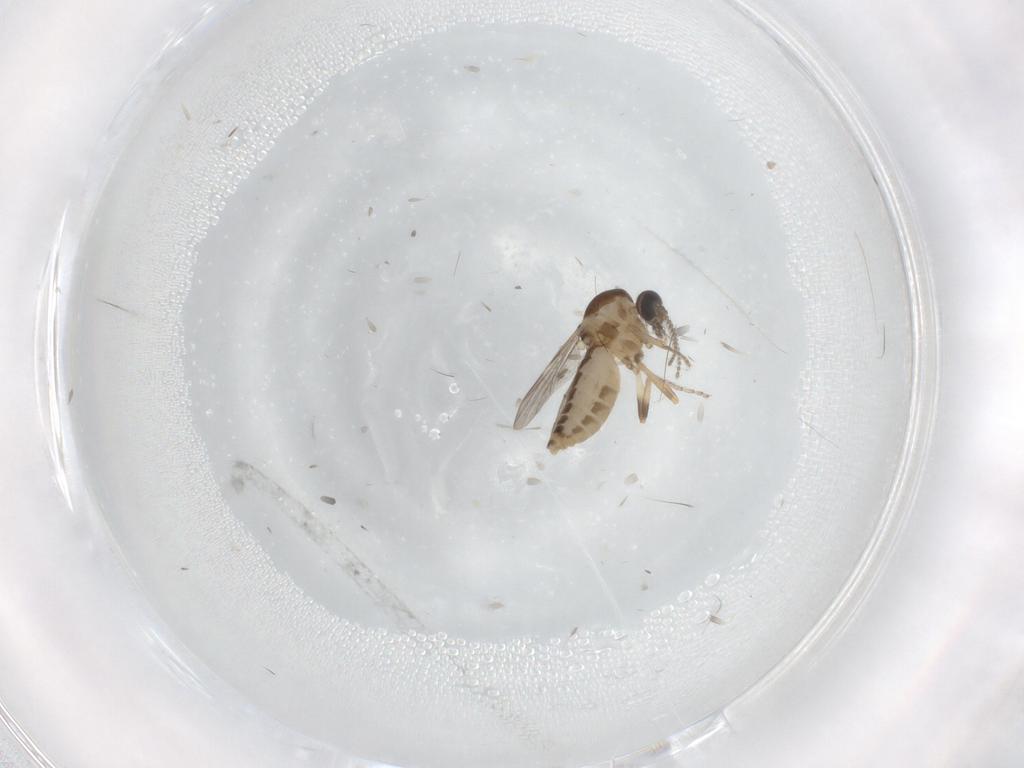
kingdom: Animalia
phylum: Arthropoda
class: Insecta
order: Diptera
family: Ceratopogonidae
